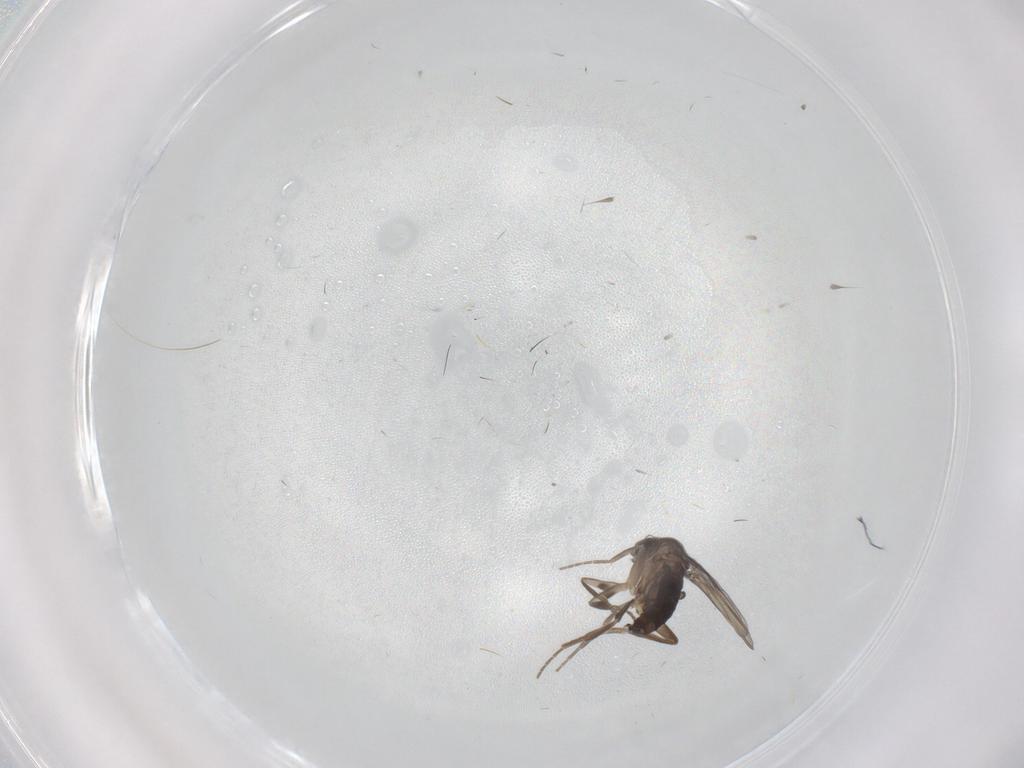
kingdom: Animalia
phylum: Arthropoda
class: Insecta
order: Diptera
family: Phoridae
